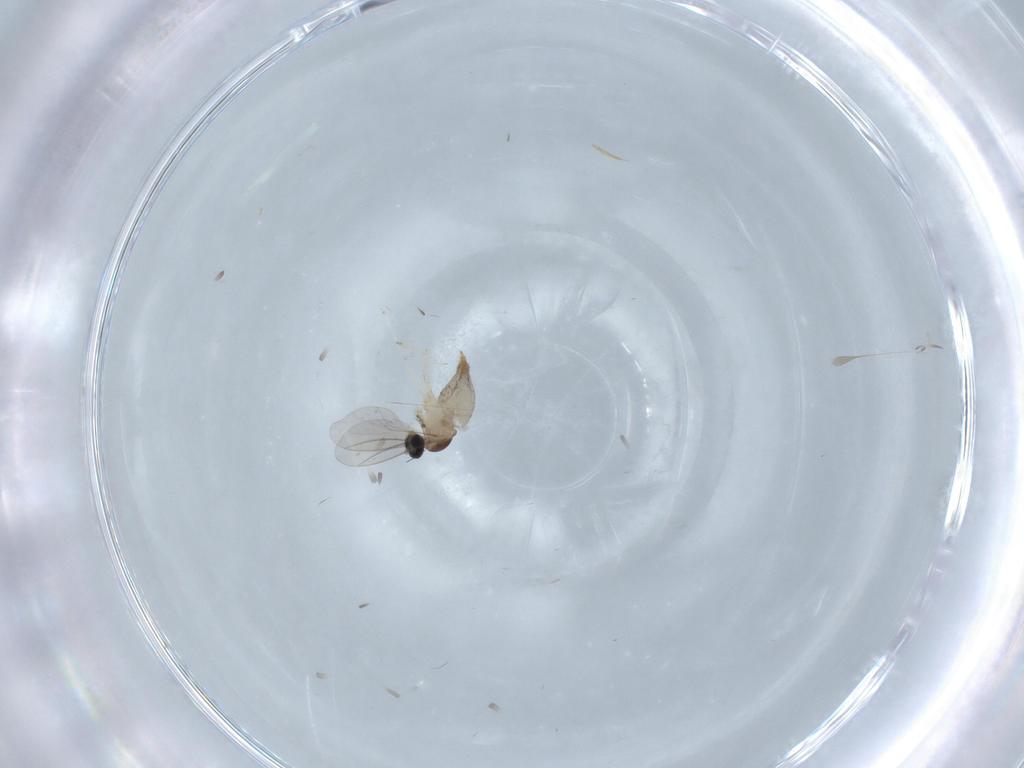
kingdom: Animalia
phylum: Arthropoda
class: Insecta
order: Diptera
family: Cecidomyiidae
